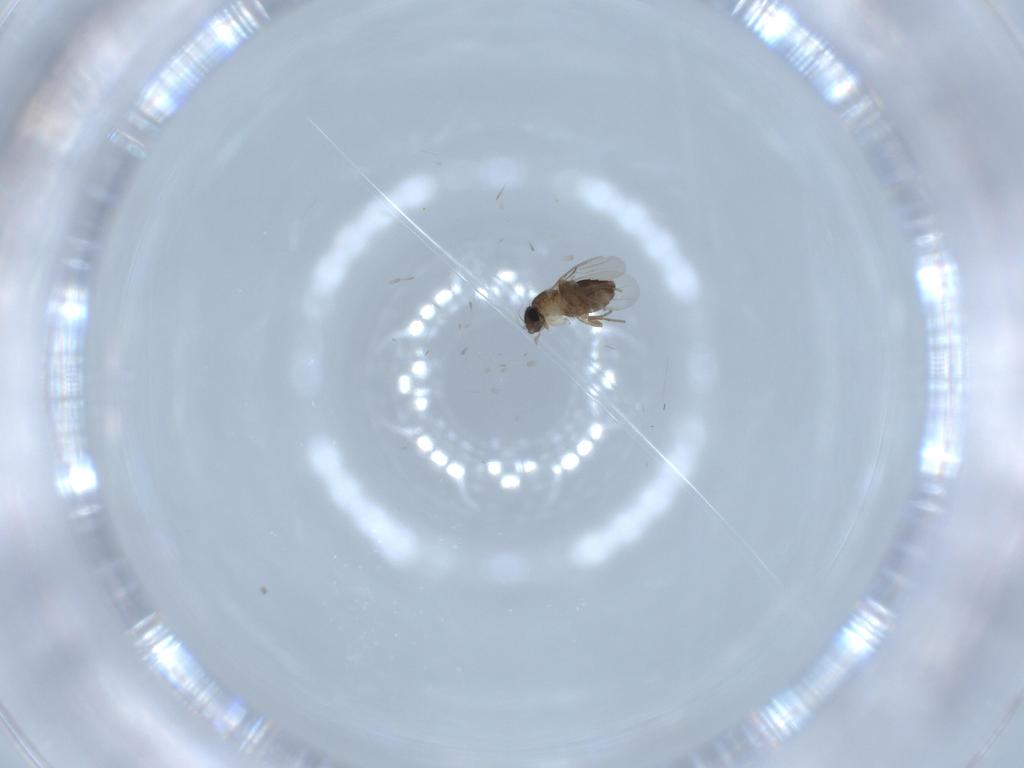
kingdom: Animalia
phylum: Arthropoda
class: Insecta
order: Diptera
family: Phoridae
